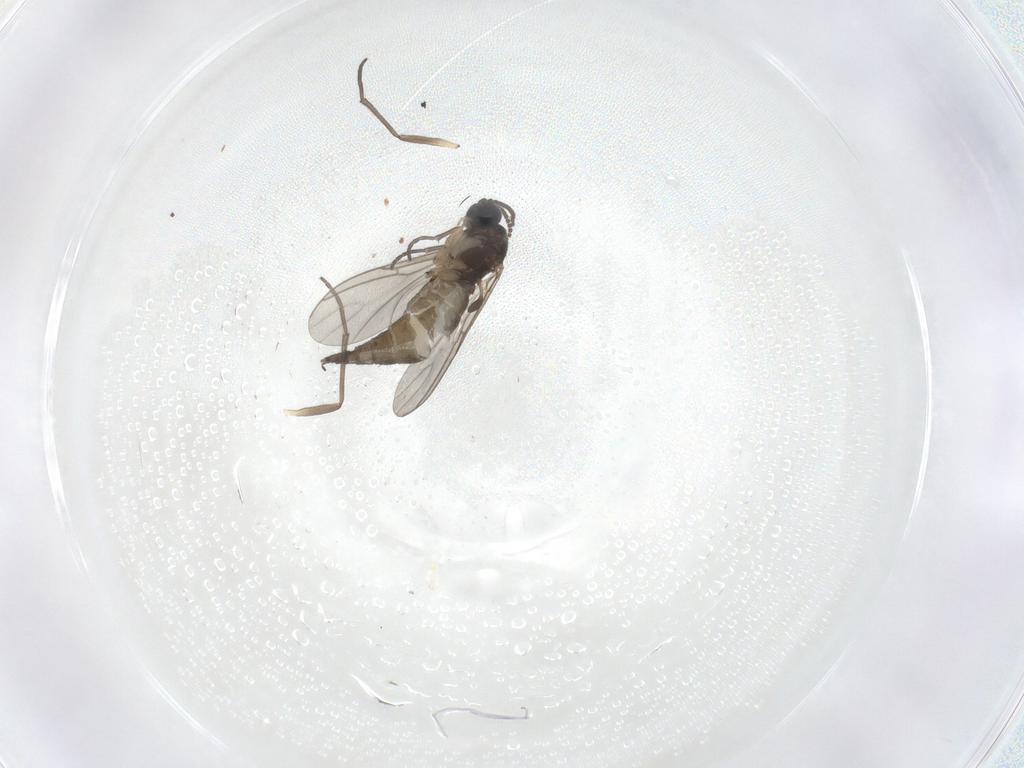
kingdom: Animalia
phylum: Arthropoda
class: Insecta
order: Diptera
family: Sciaridae
